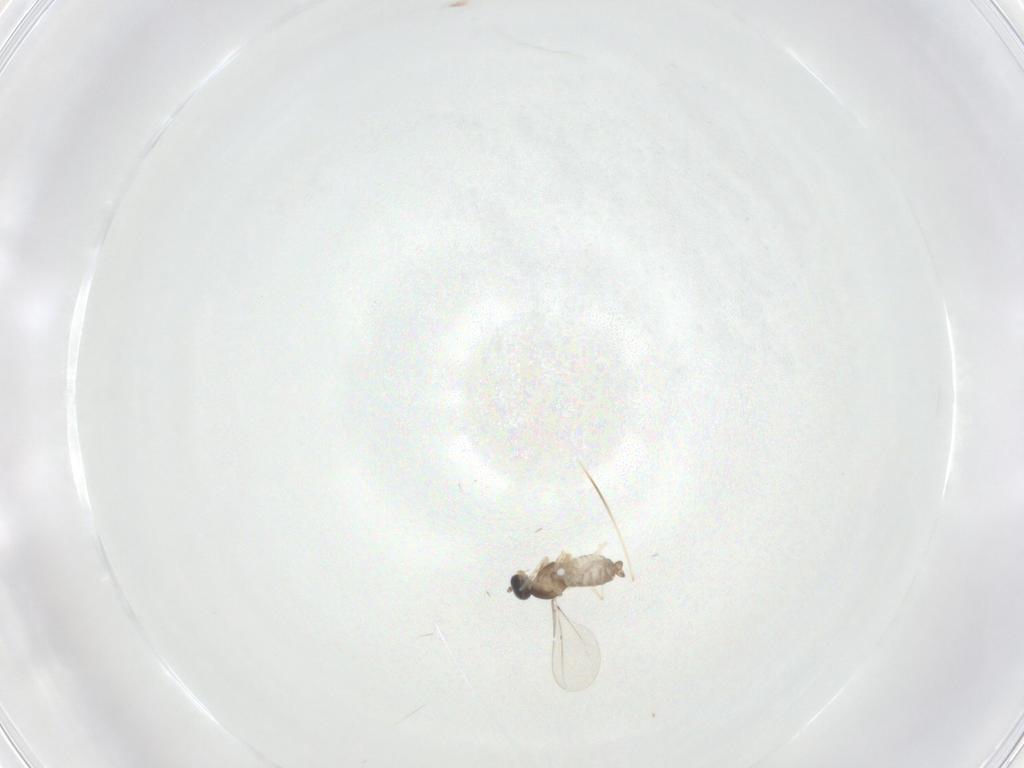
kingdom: Animalia
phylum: Arthropoda
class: Insecta
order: Diptera
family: Cecidomyiidae
